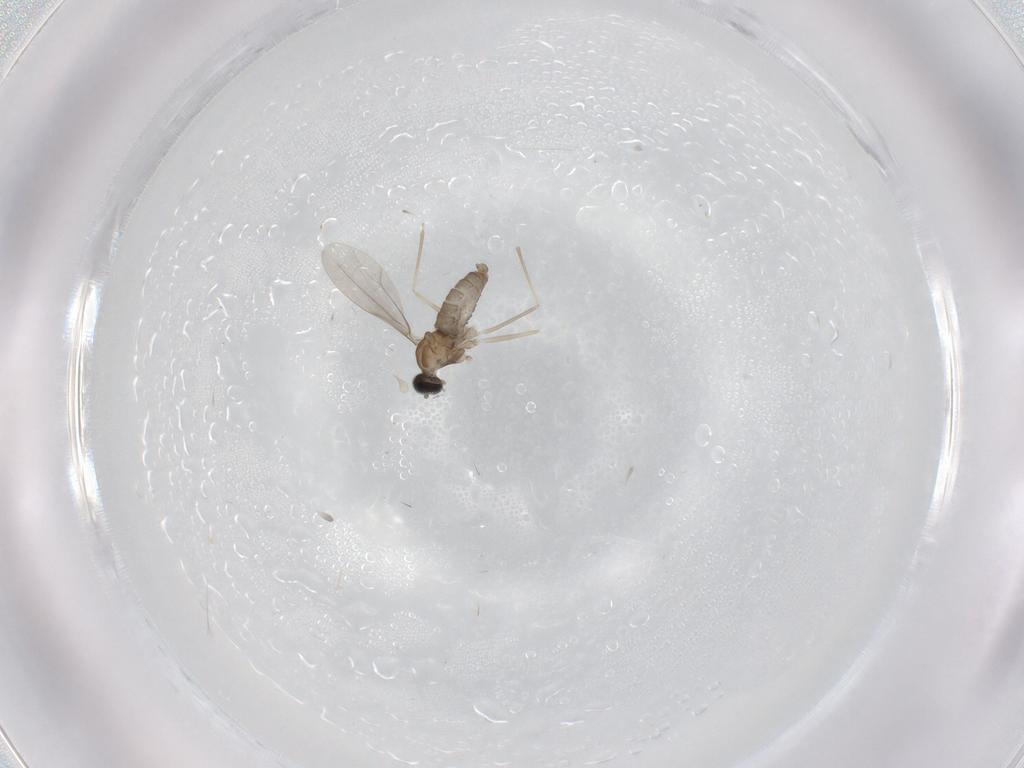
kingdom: Animalia
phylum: Arthropoda
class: Insecta
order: Diptera
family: Cecidomyiidae
